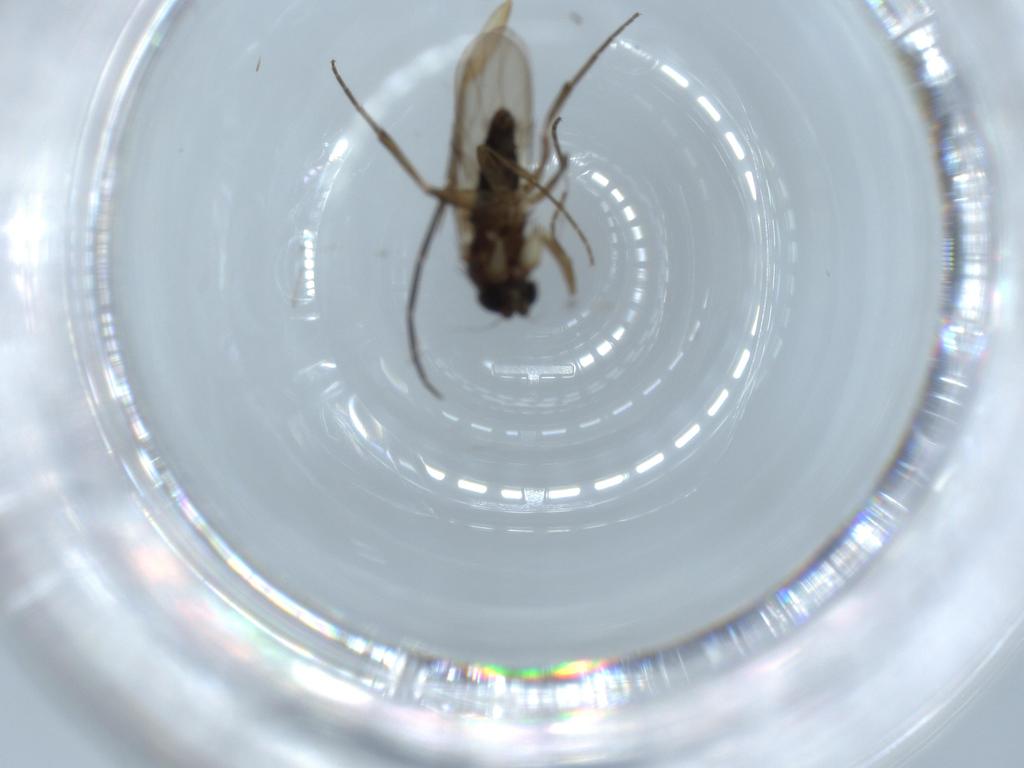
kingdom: Animalia
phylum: Arthropoda
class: Insecta
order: Diptera
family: Phoridae
